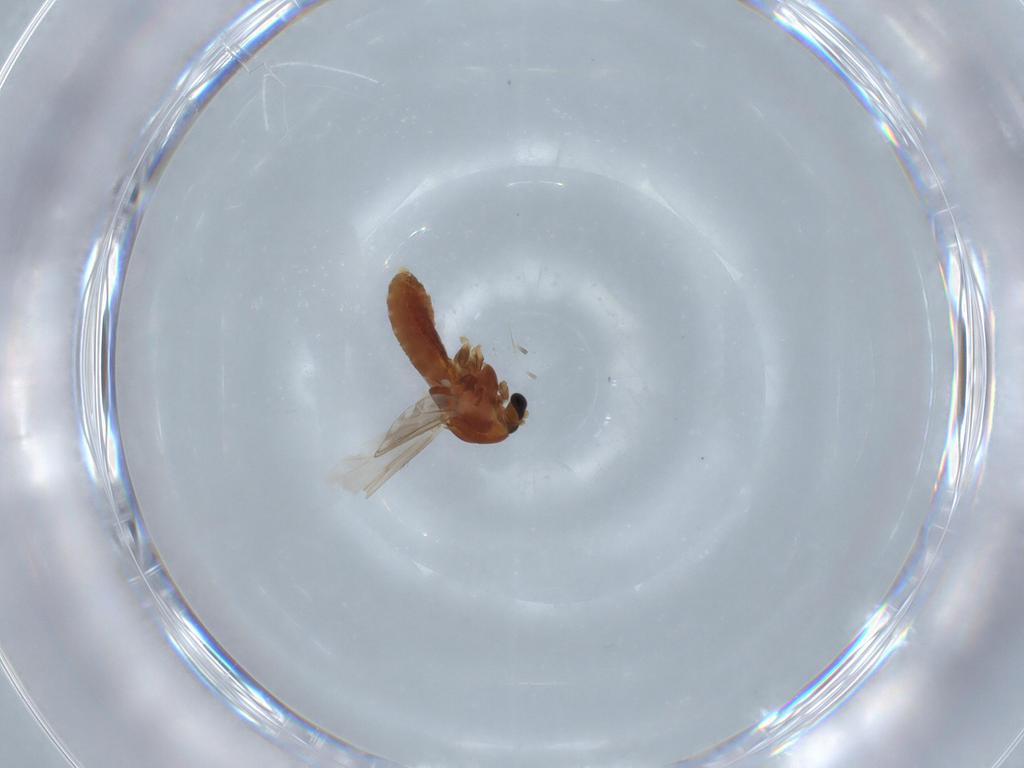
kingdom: Animalia
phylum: Arthropoda
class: Insecta
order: Diptera
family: Chironomidae
